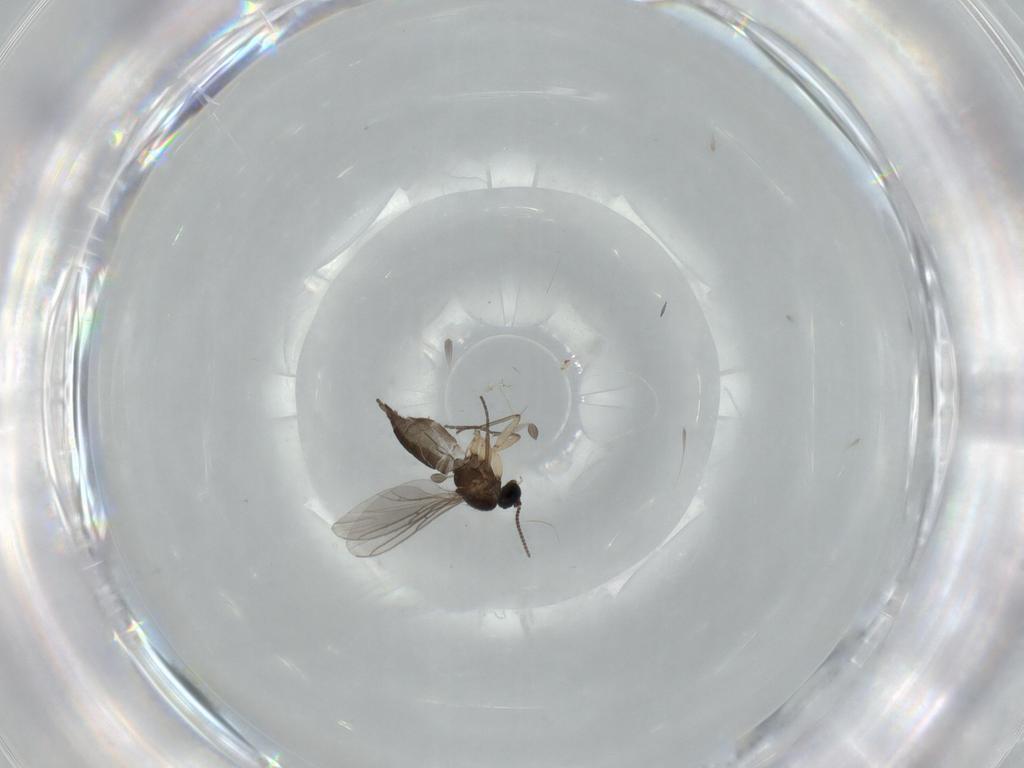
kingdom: Animalia
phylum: Arthropoda
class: Insecta
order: Diptera
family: Sciaridae
